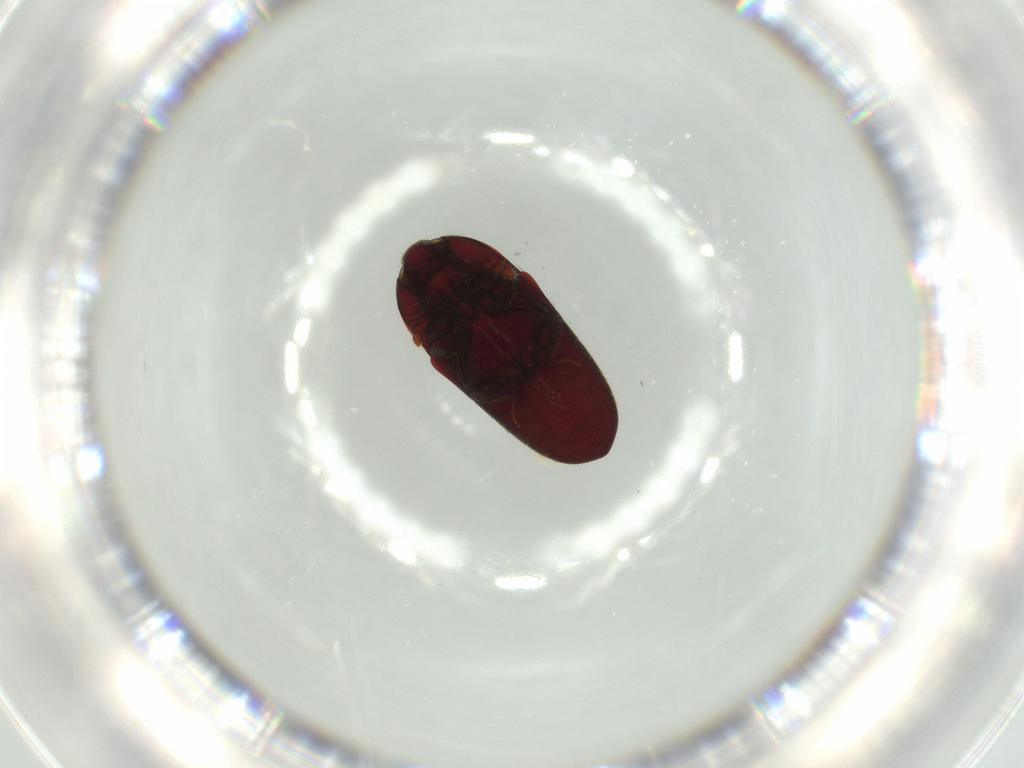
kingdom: Animalia
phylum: Arthropoda
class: Insecta
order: Coleoptera
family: Throscidae
